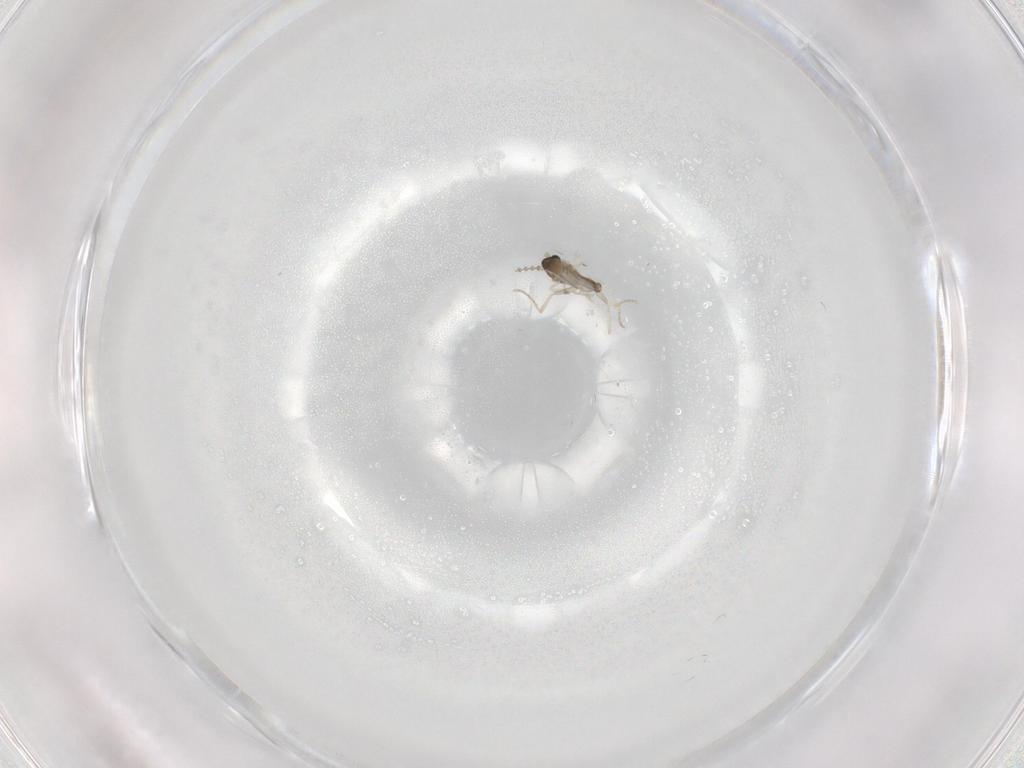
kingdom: Animalia
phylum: Arthropoda
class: Insecta
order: Diptera
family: Cecidomyiidae
